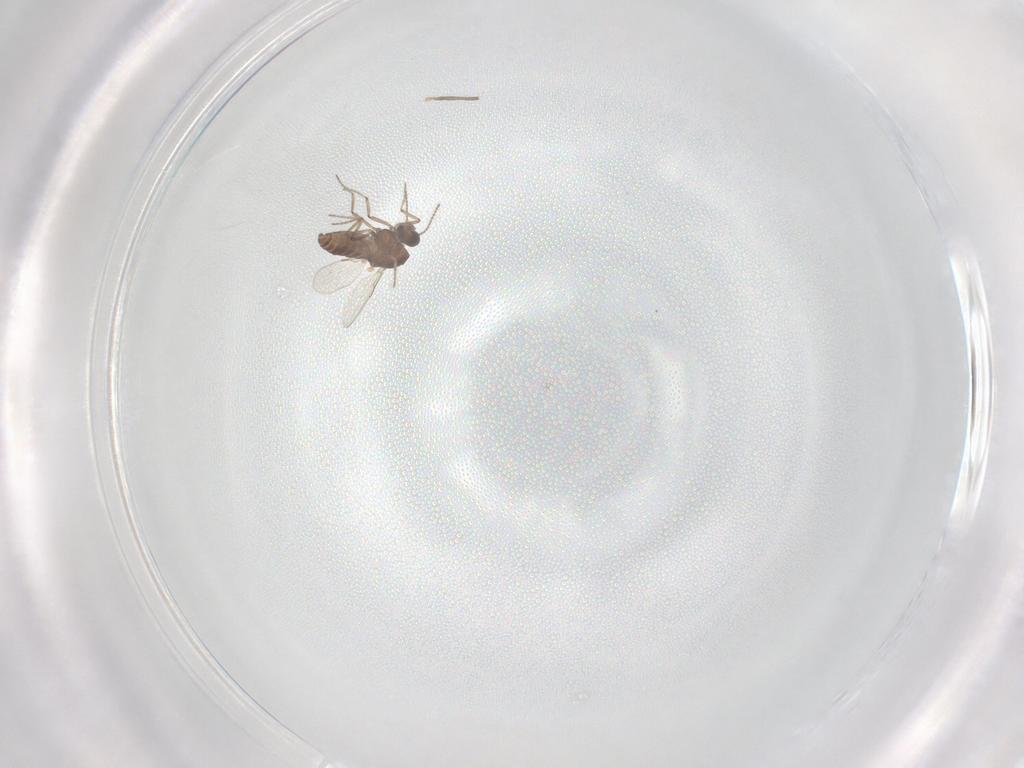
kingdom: Animalia
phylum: Arthropoda
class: Insecta
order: Diptera
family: Ceratopogonidae
